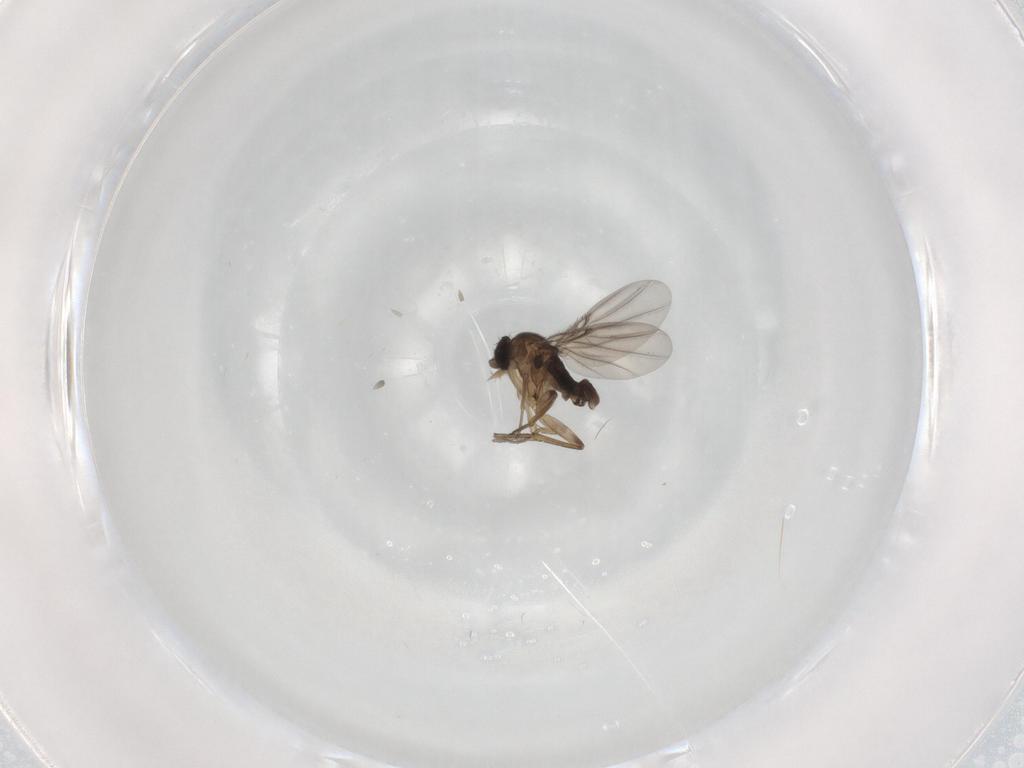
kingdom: Animalia
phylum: Arthropoda
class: Insecta
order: Diptera
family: Phoridae
